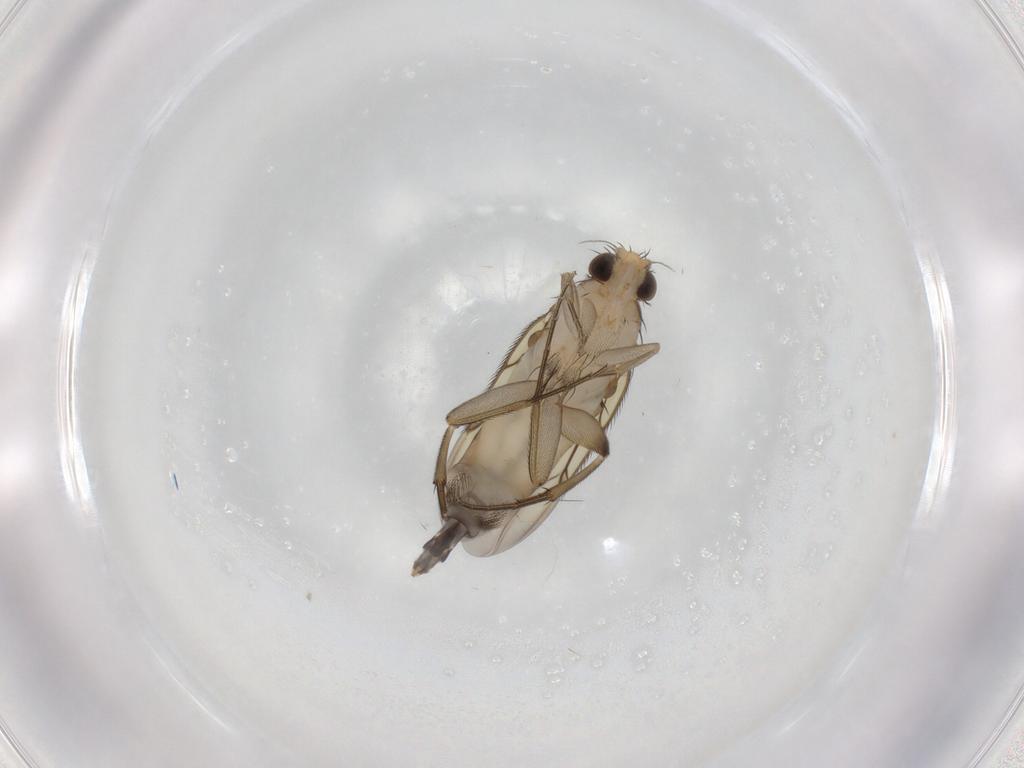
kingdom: Animalia
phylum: Arthropoda
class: Insecta
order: Diptera
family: Phoridae
